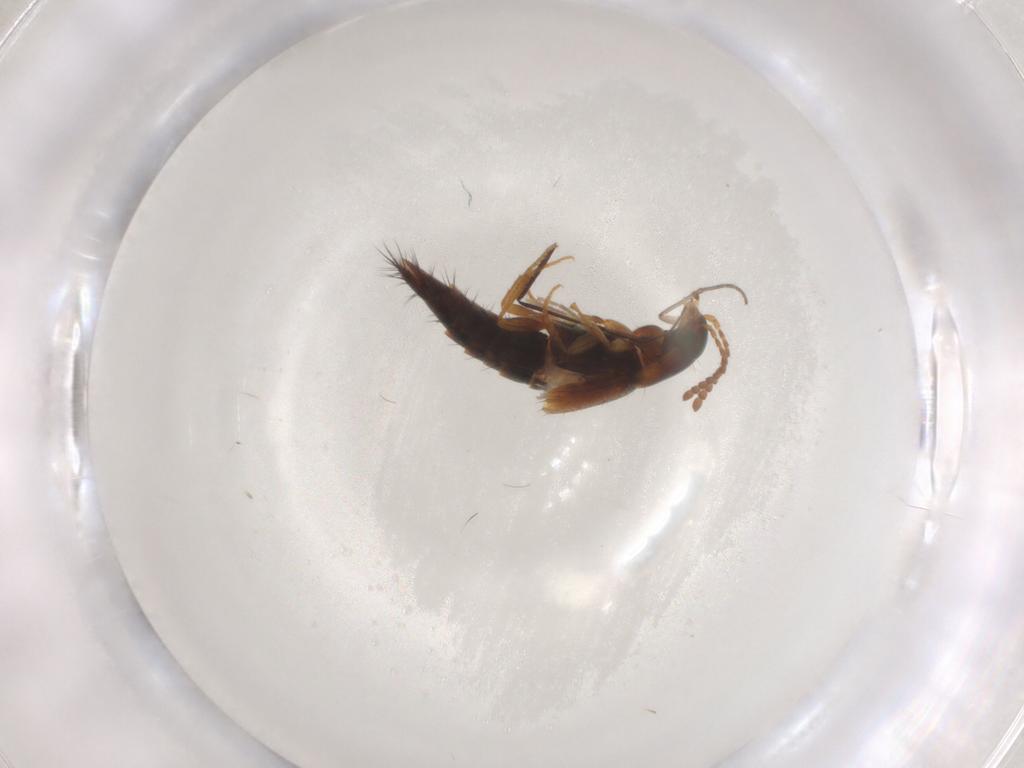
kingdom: Animalia
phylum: Arthropoda
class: Insecta
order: Coleoptera
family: Staphylinidae
